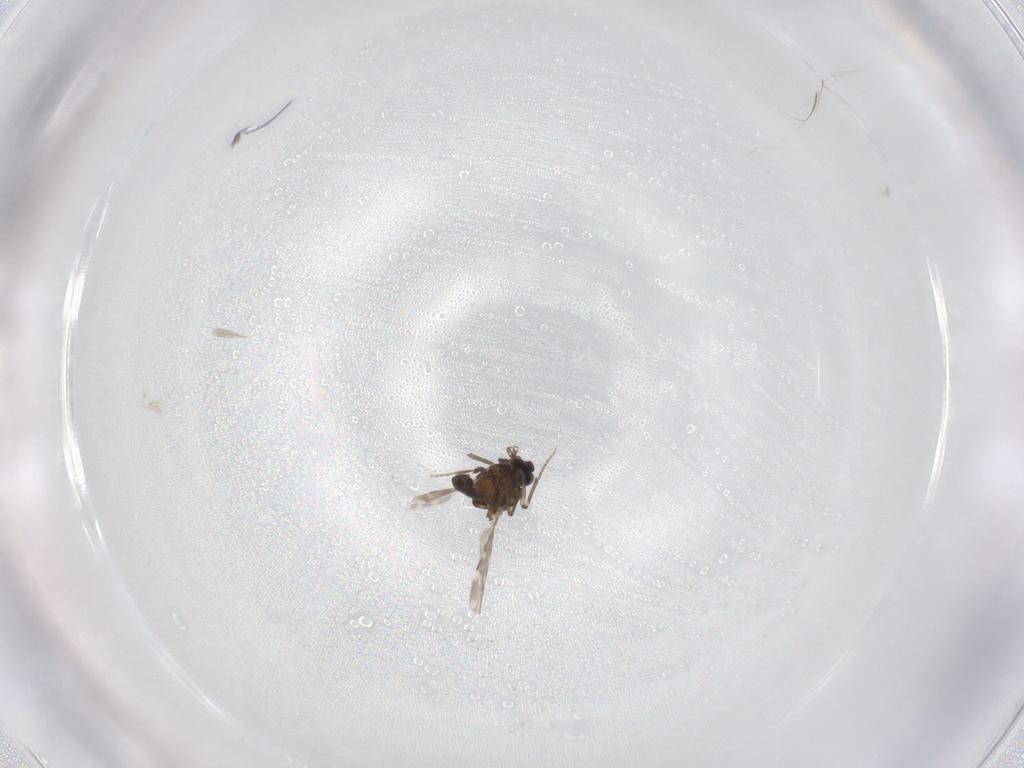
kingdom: Animalia
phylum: Arthropoda
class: Insecta
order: Diptera
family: Ceratopogonidae
